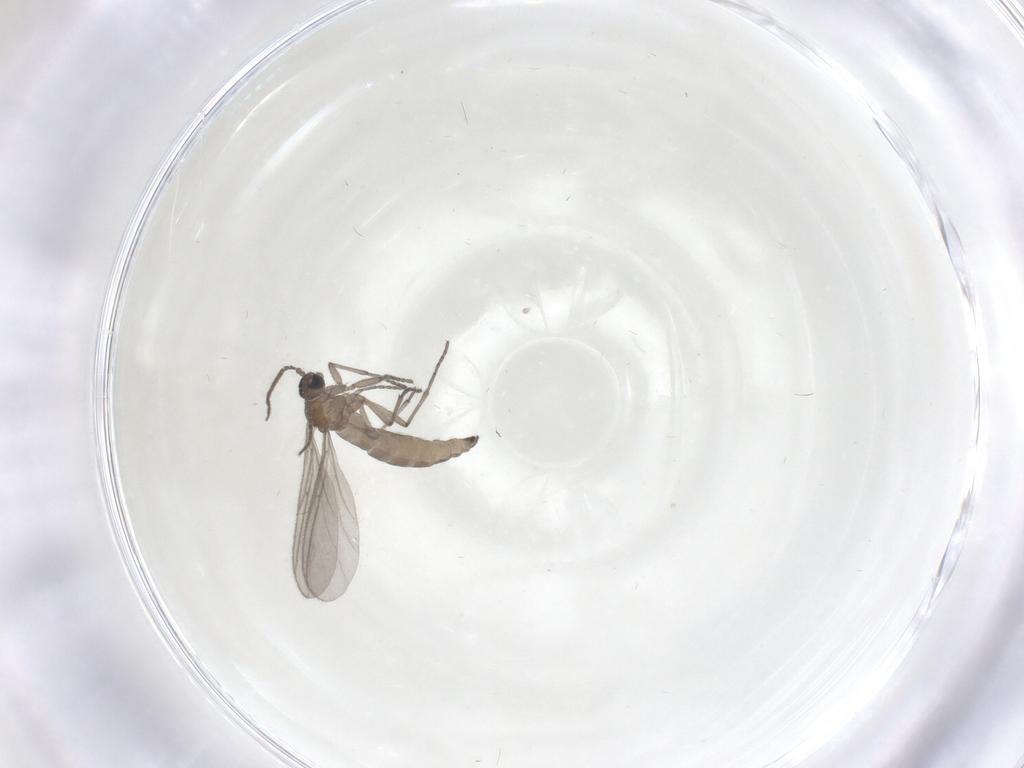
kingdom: Animalia
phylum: Arthropoda
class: Insecta
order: Diptera
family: Sciaridae
